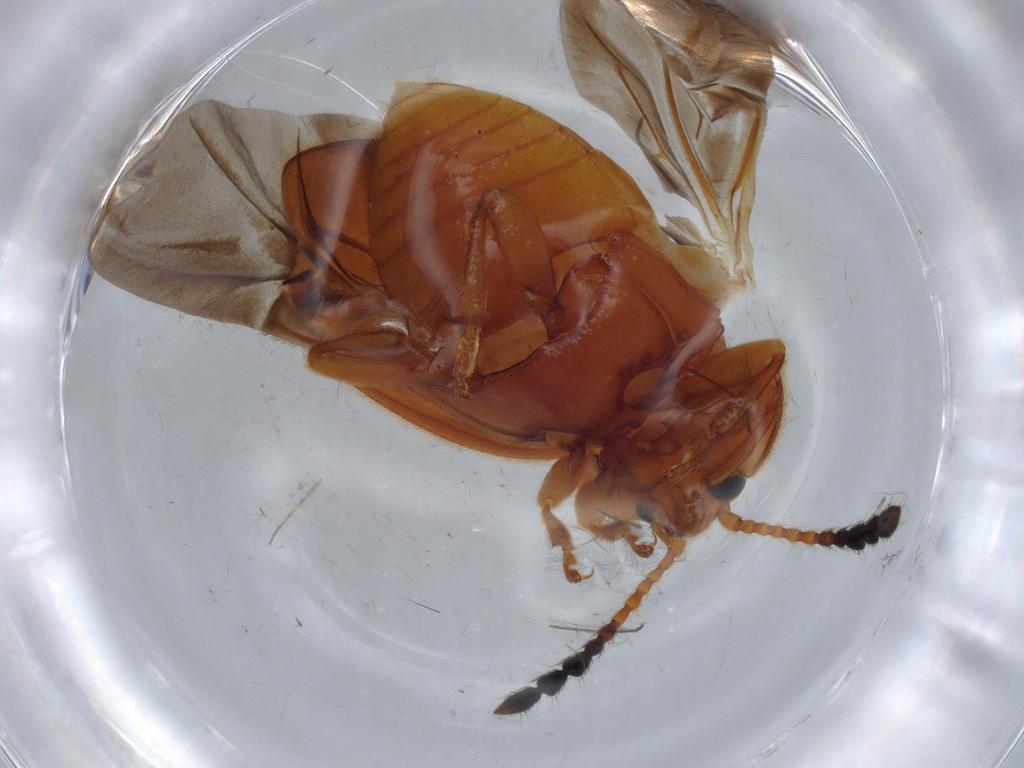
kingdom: Animalia
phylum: Arthropoda
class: Insecta
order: Coleoptera
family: Endomychidae
